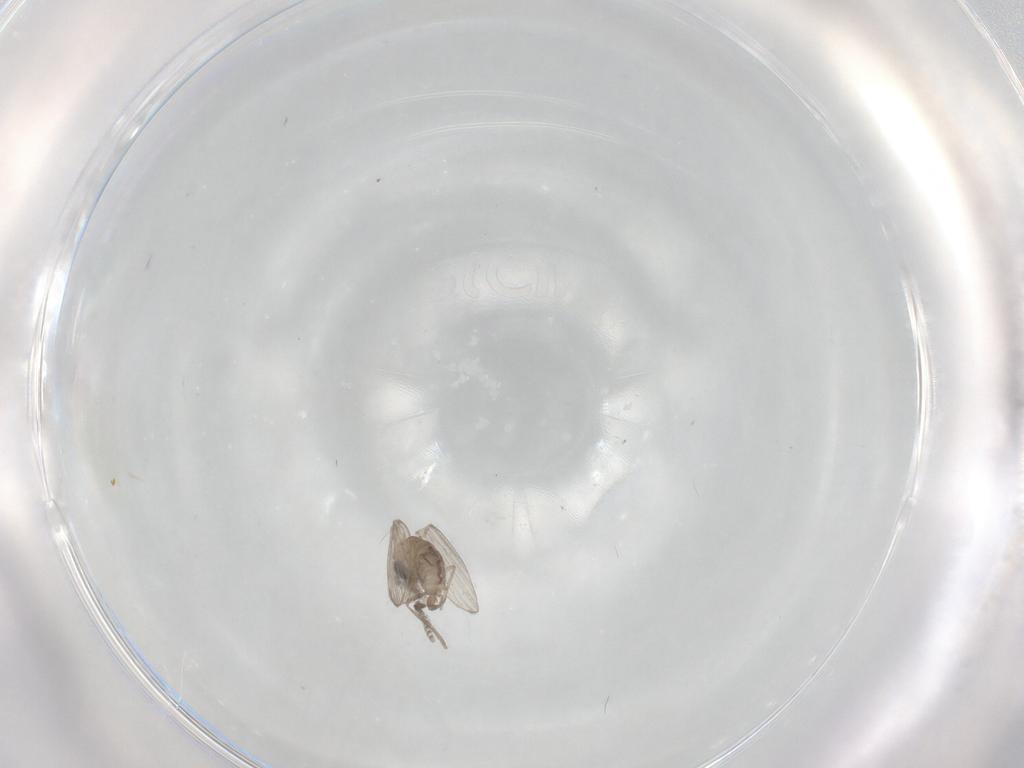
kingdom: Animalia
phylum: Arthropoda
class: Insecta
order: Diptera
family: Psychodidae
